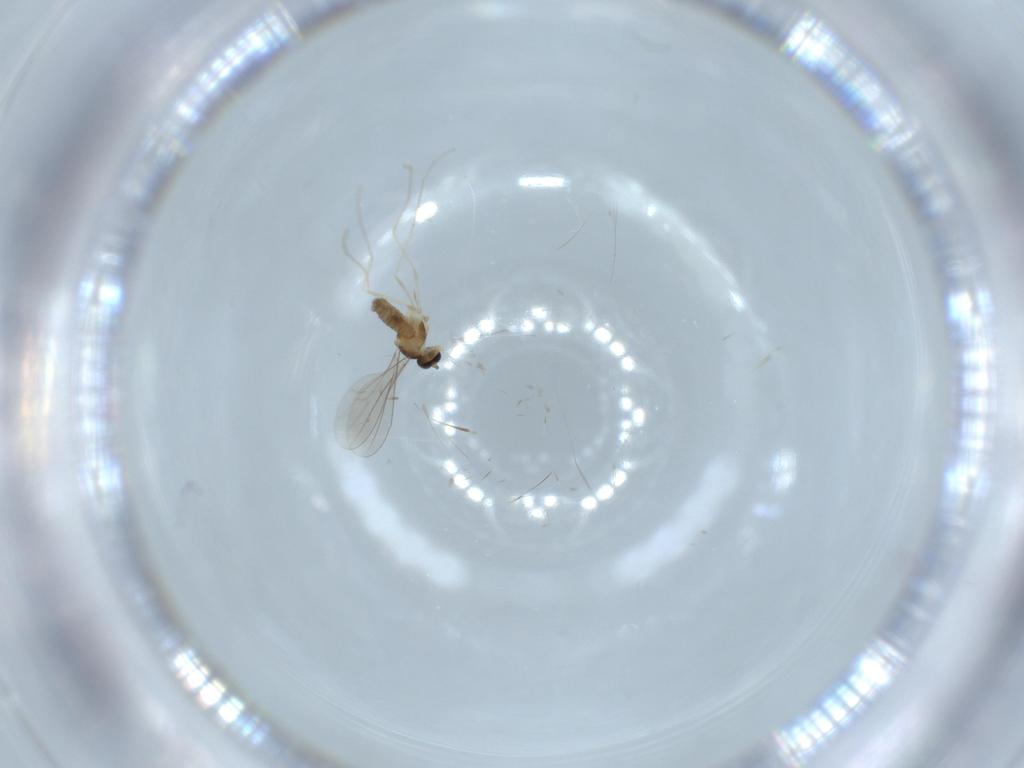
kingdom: Animalia
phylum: Arthropoda
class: Insecta
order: Diptera
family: Cecidomyiidae
